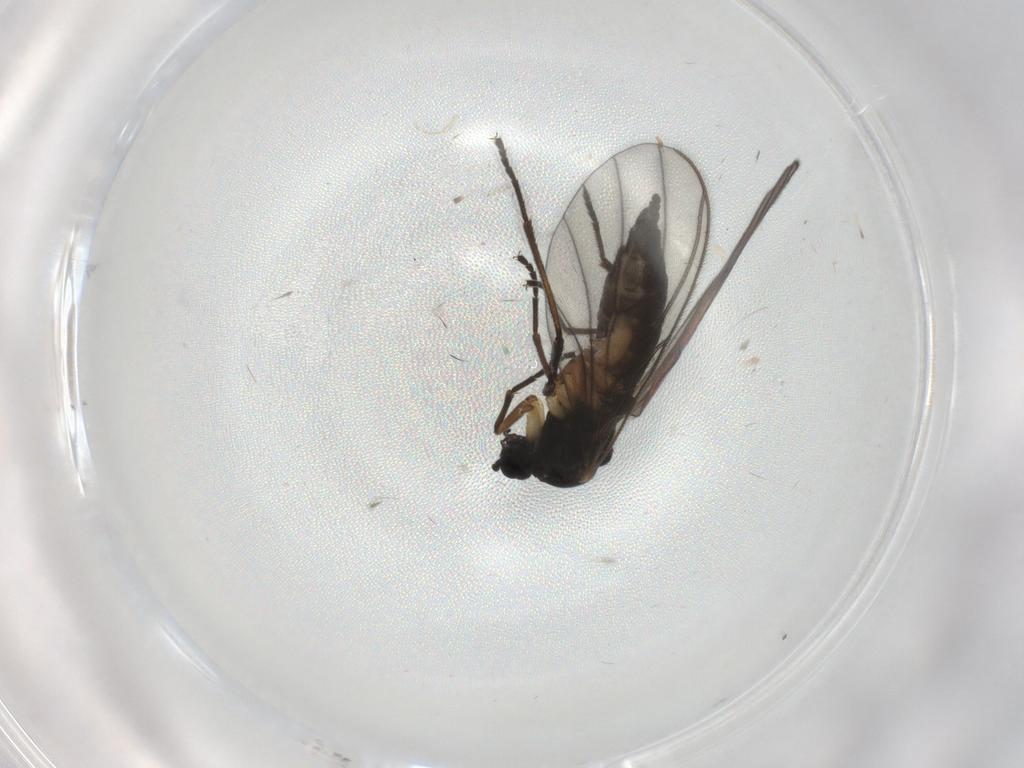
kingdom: Animalia
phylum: Arthropoda
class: Insecta
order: Diptera
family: Sciaridae
